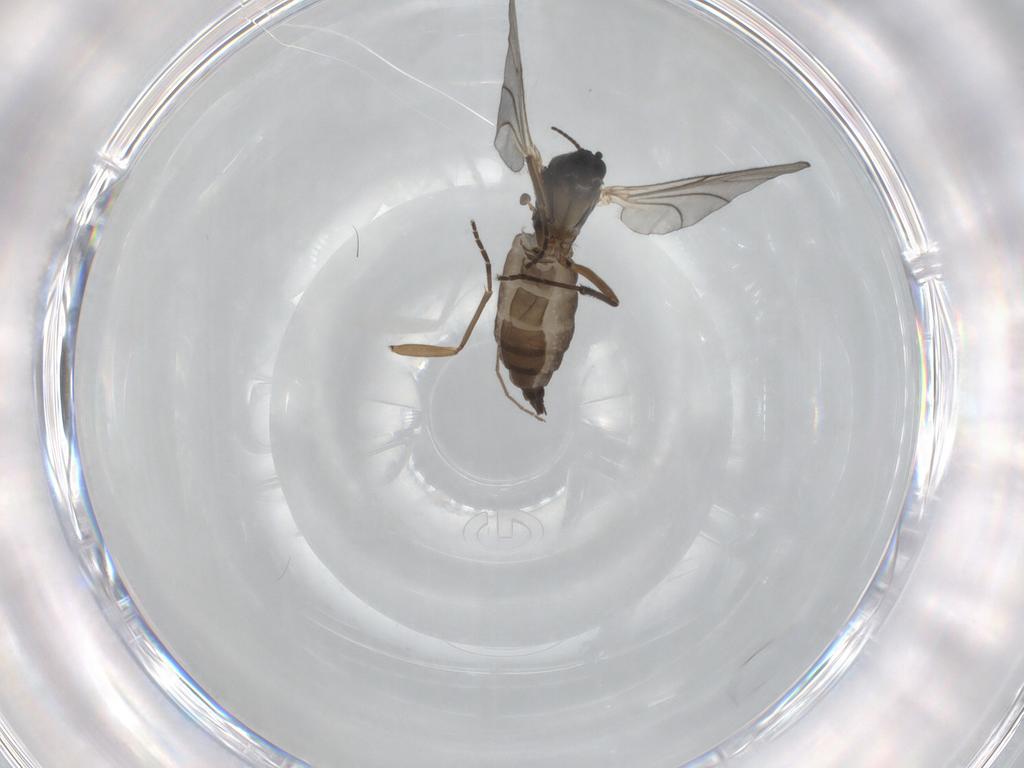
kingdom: Animalia
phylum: Arthropoda
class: Insecta
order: Diptera
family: Sciaridae
